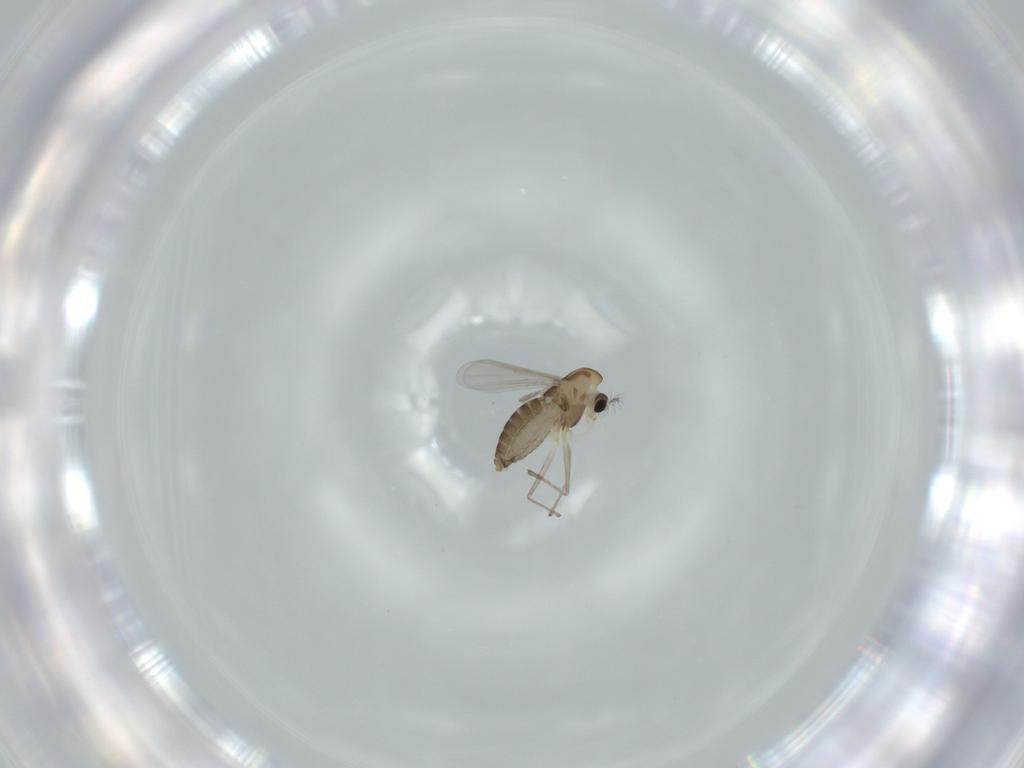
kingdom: Animalia
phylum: Arthropoda
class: Insecta
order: Diptera
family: Chironomidae
